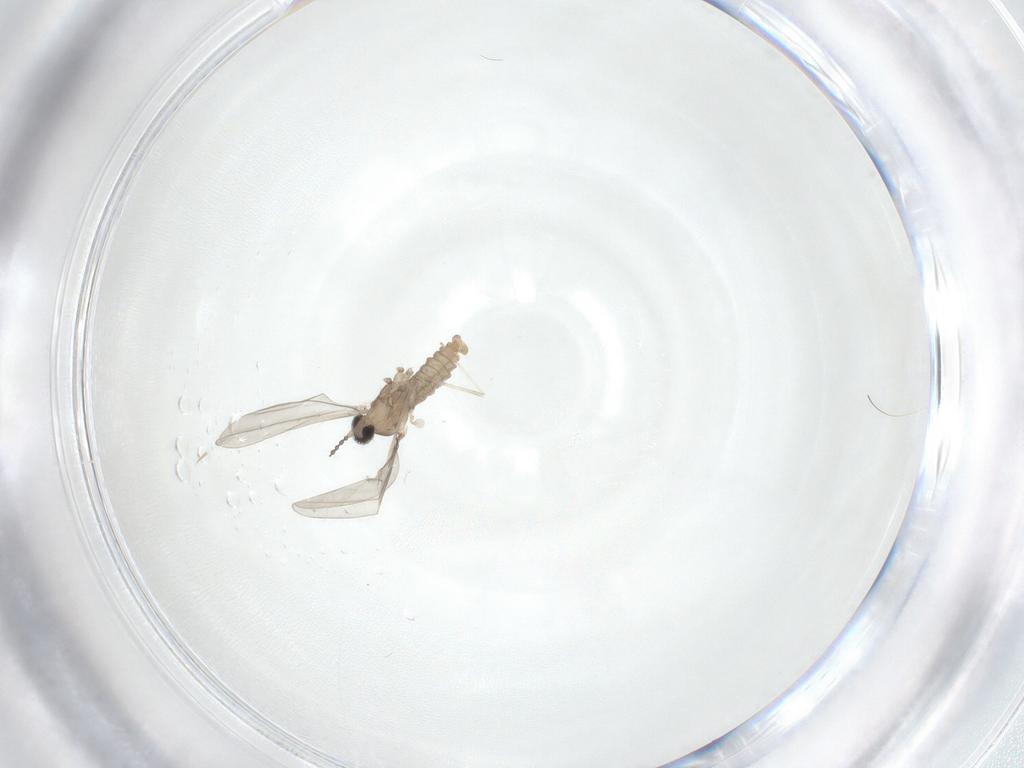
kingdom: Animalia
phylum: Arthropoda
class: Insecta
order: Diptera
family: Cecidomyiidae
